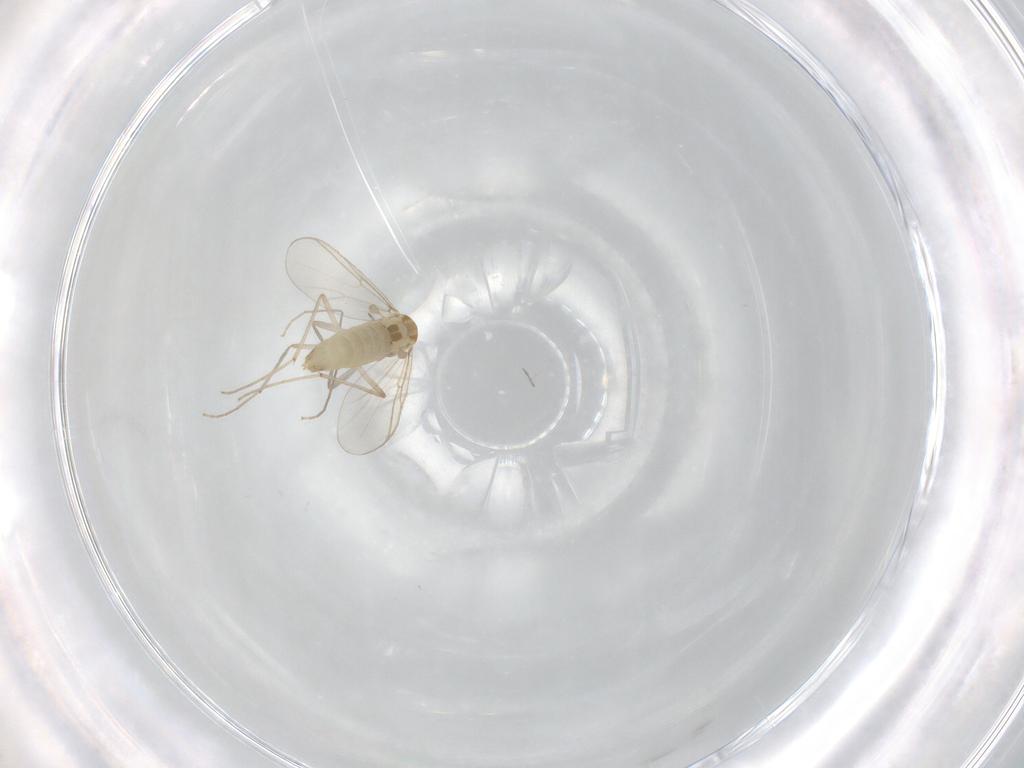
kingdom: Animalia
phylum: Arthropoda
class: Insecta
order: Diptera
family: Chironomidae
